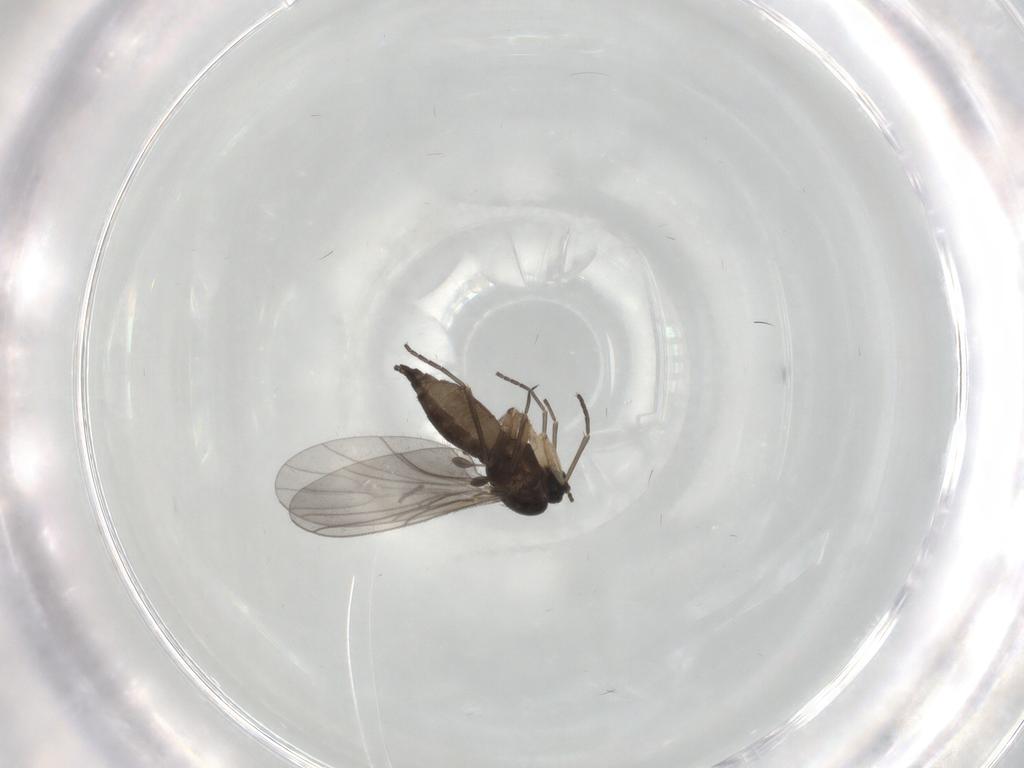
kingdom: Animalia
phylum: Arthropoda
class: Insecta
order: Diptera
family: Sciaridae
